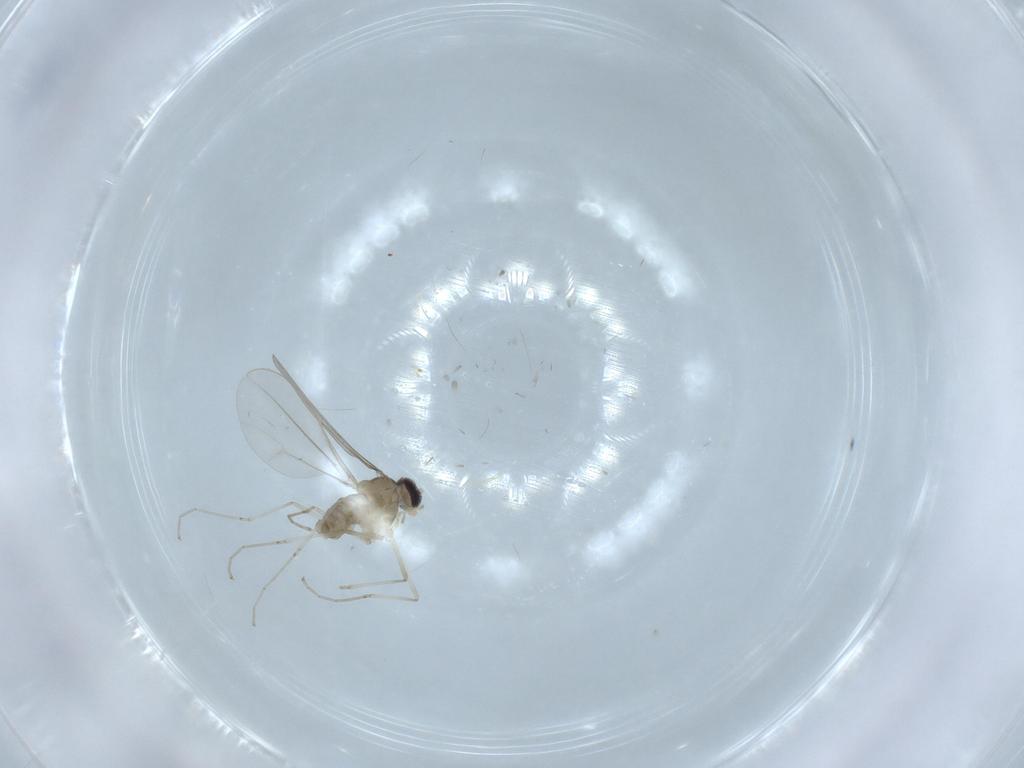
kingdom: Animalia
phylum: Arthropoda
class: Insecta
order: Diptera
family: Cecidomyiidae
